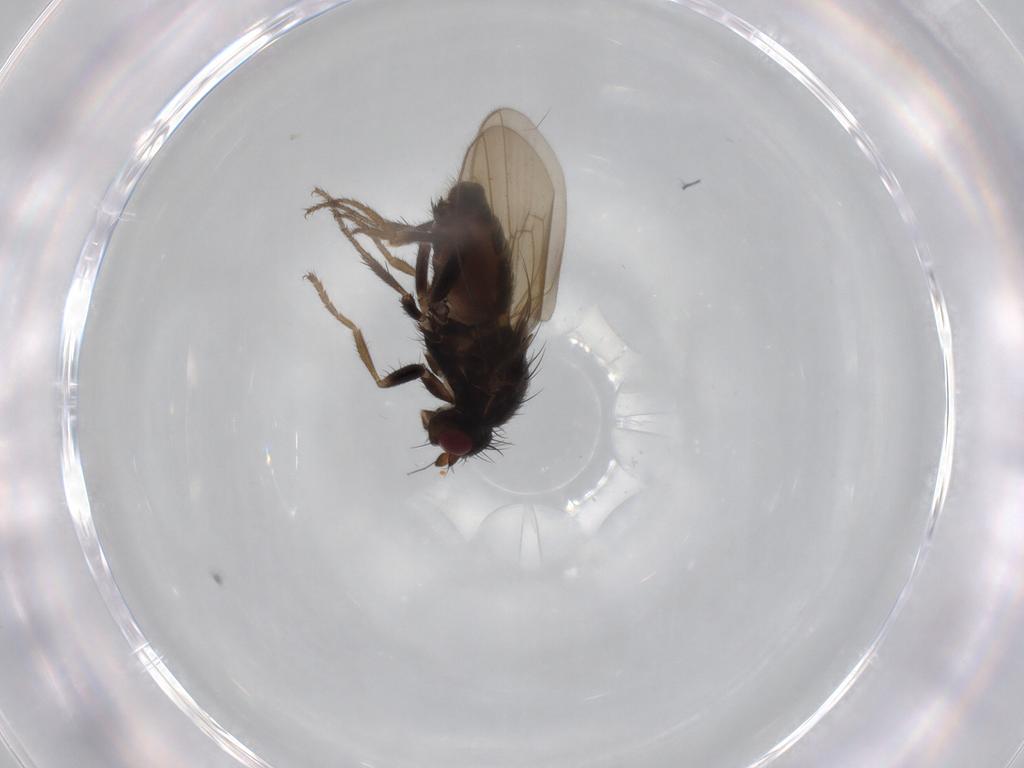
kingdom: Animalia
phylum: Arthropoda
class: Insecta
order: Diptera
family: Sphaeroceridae
